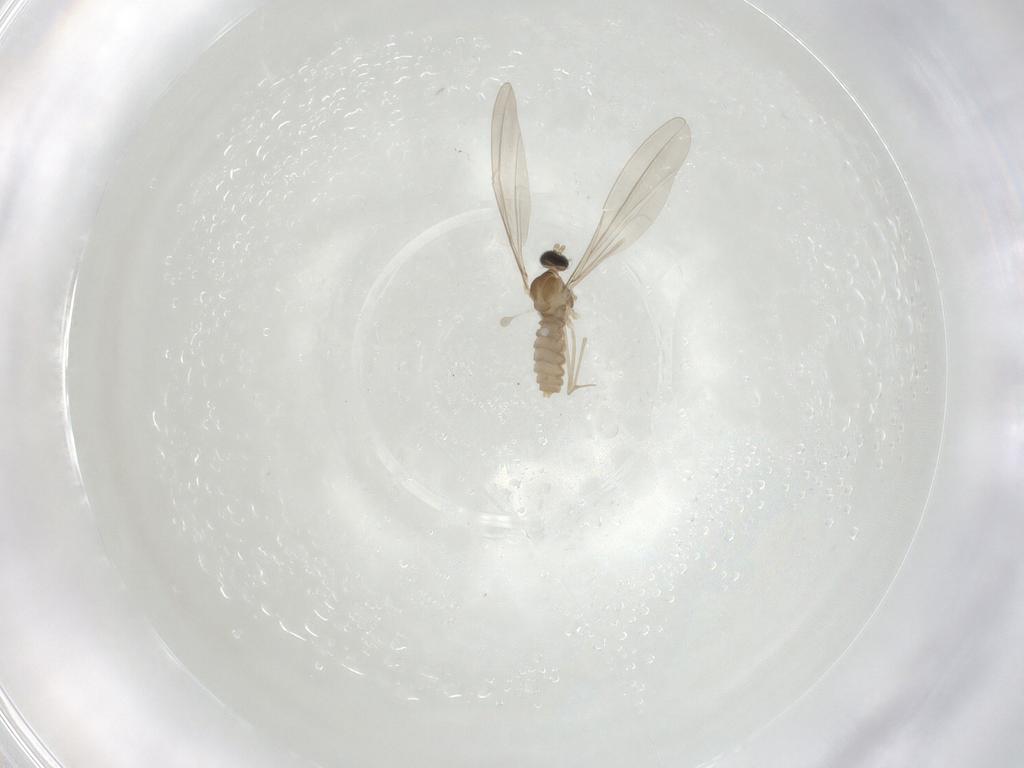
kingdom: Animalia
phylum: Arthropoda
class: Insecta
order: Diptera
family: Cecidomyiidae
